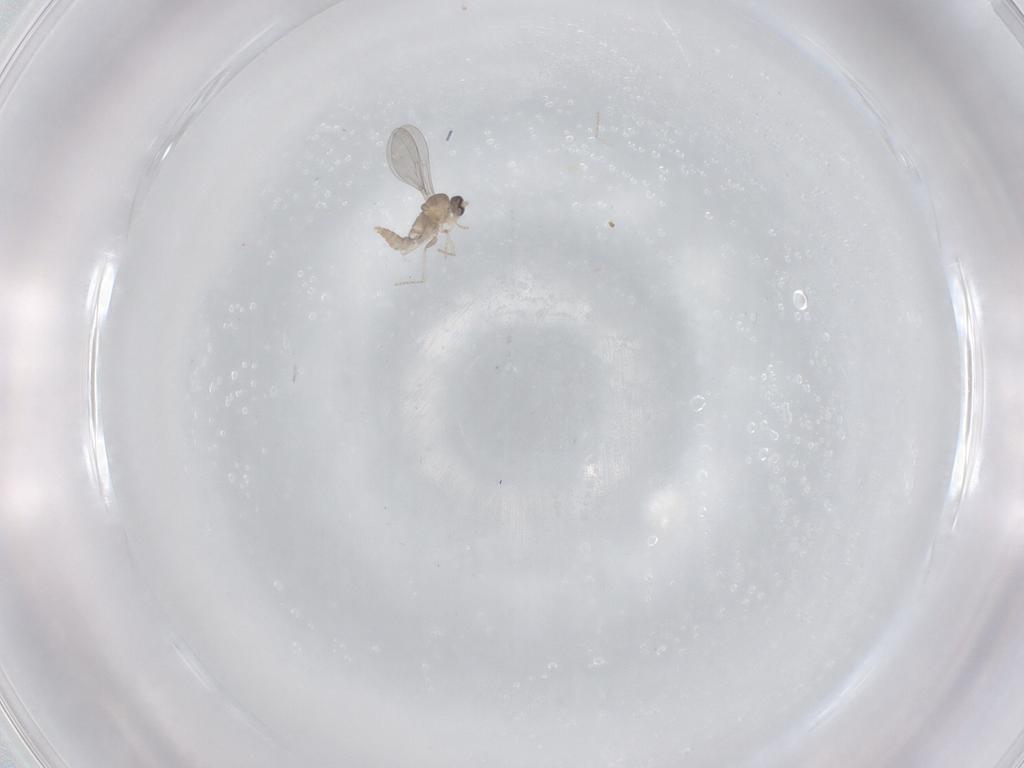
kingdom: Animalia
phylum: Arthropoda
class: Insecta
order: Diptera
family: Cecidomyiidae
